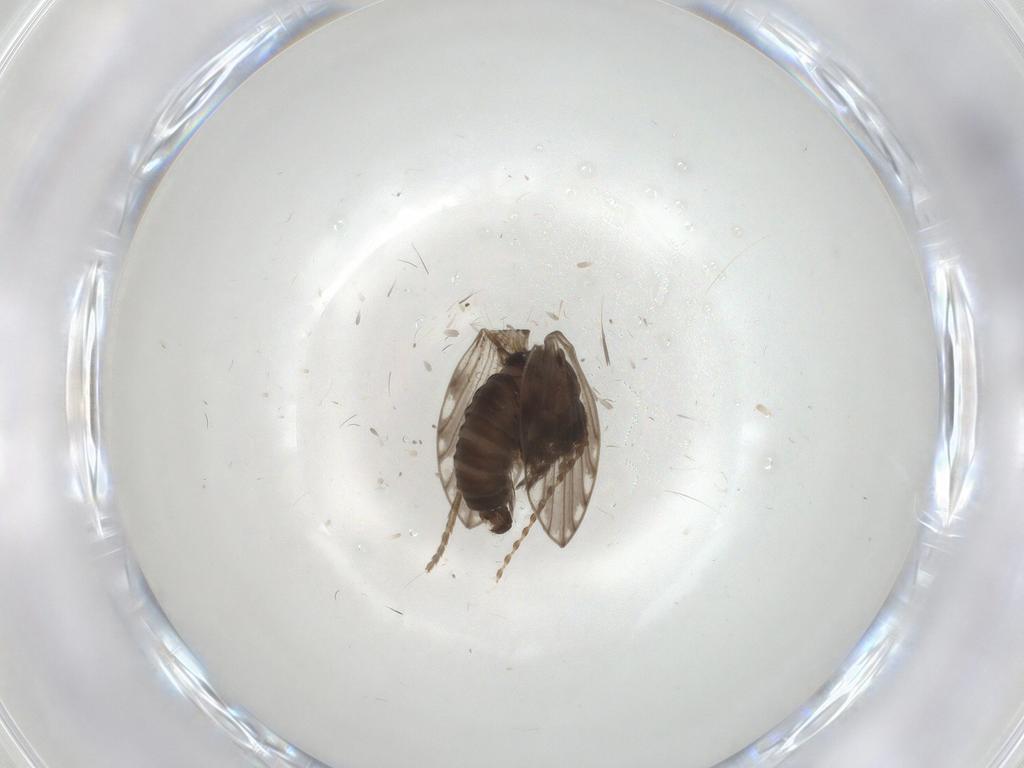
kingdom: Animalia
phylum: Arthropoda
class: Insecta
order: Diptera
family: Psychodidae
